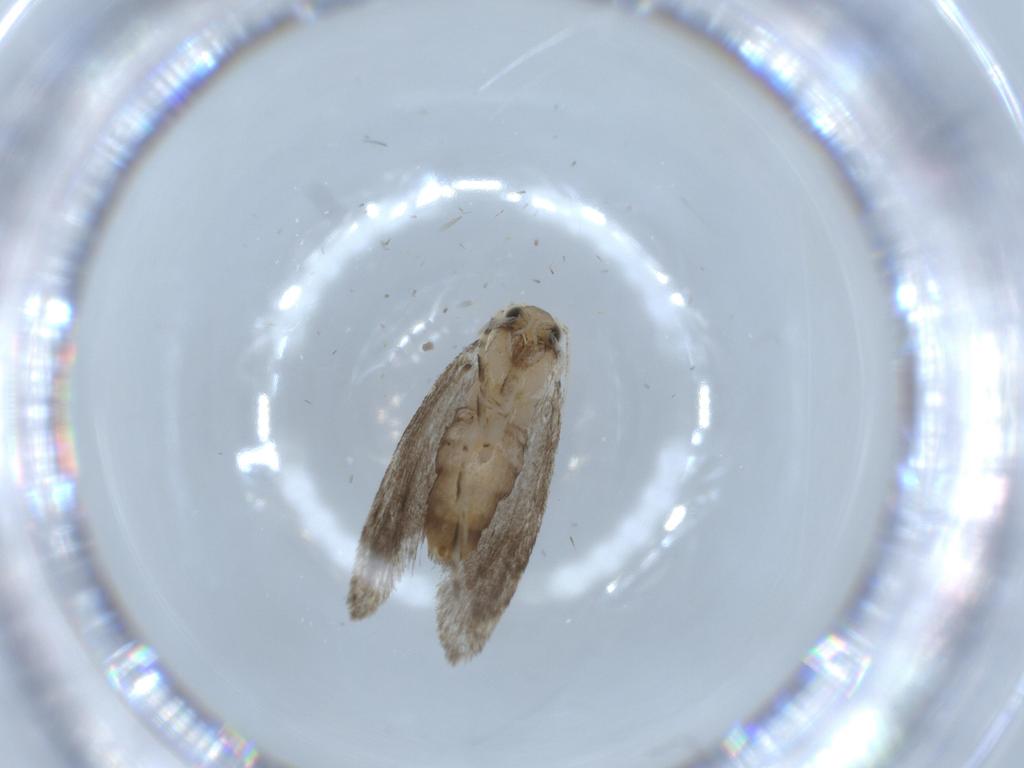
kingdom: Animalia
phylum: Arthropoda
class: Insecta
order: Lepidoptera
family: Tineidae
